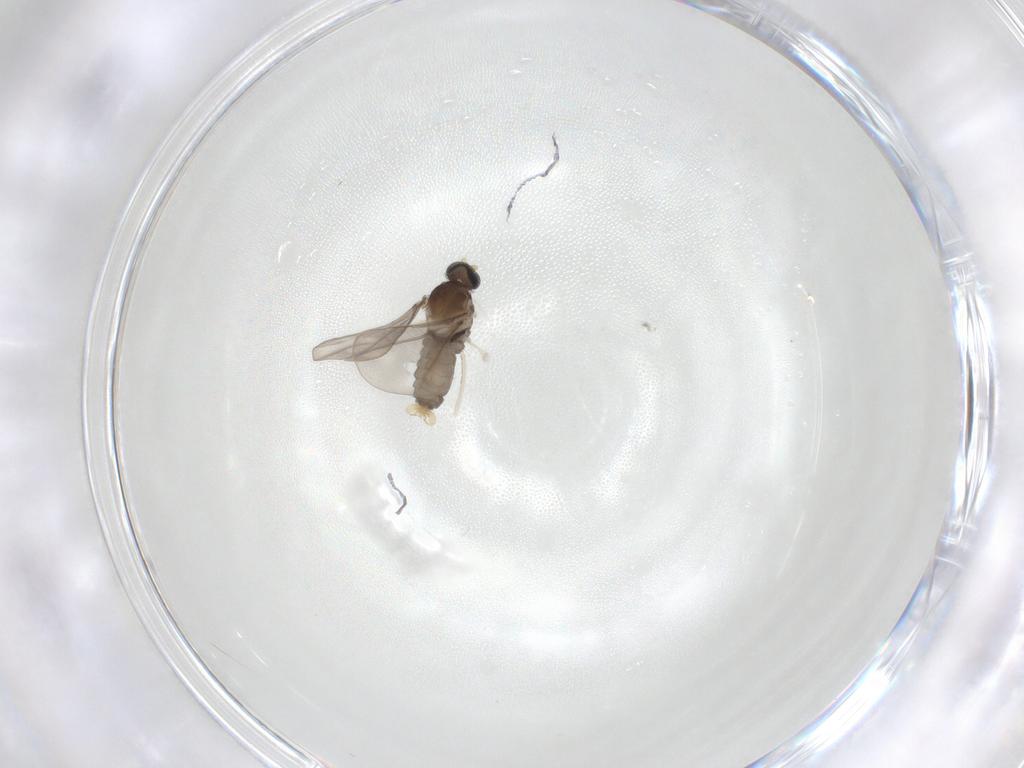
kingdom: Animalia
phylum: Arthropoda
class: Insecta
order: Diptera
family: Cecidomyiidae
